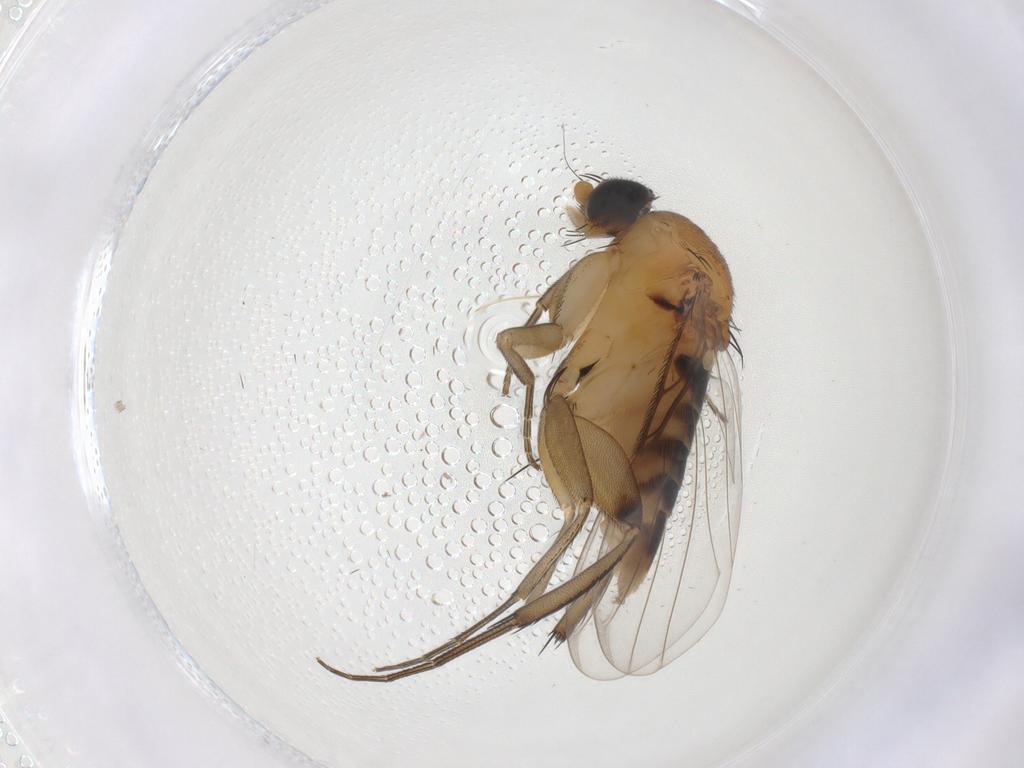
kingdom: Animalia
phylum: Arthropoda
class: Insecta
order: Diptera
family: Phoridae
